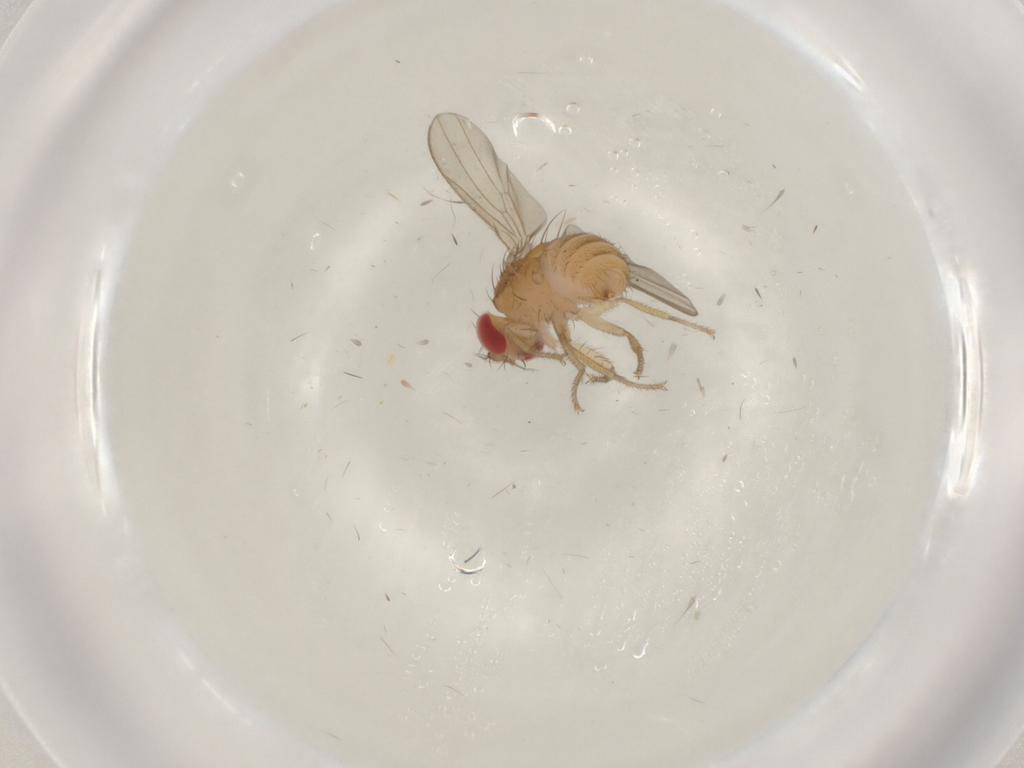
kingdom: Animalia
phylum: Arthropoda
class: Insecta
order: Diptera
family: Drosophilidae
